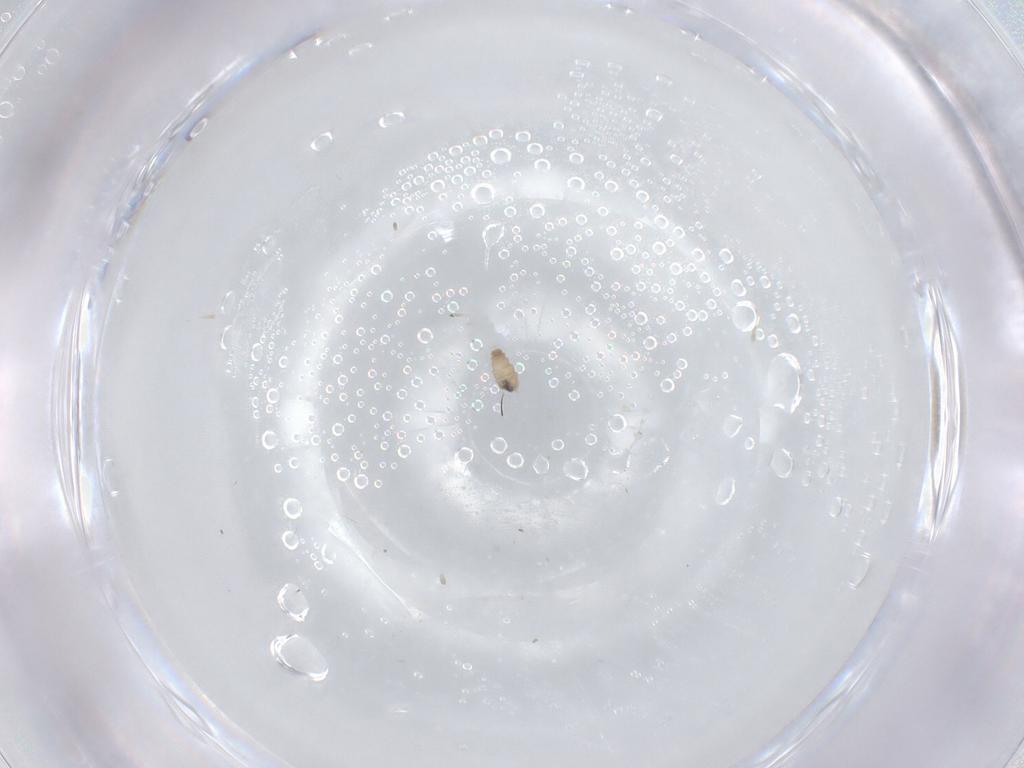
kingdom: Animalia
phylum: Arthropoda
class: Insecta
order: Diptera
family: Cecidomyiidae
